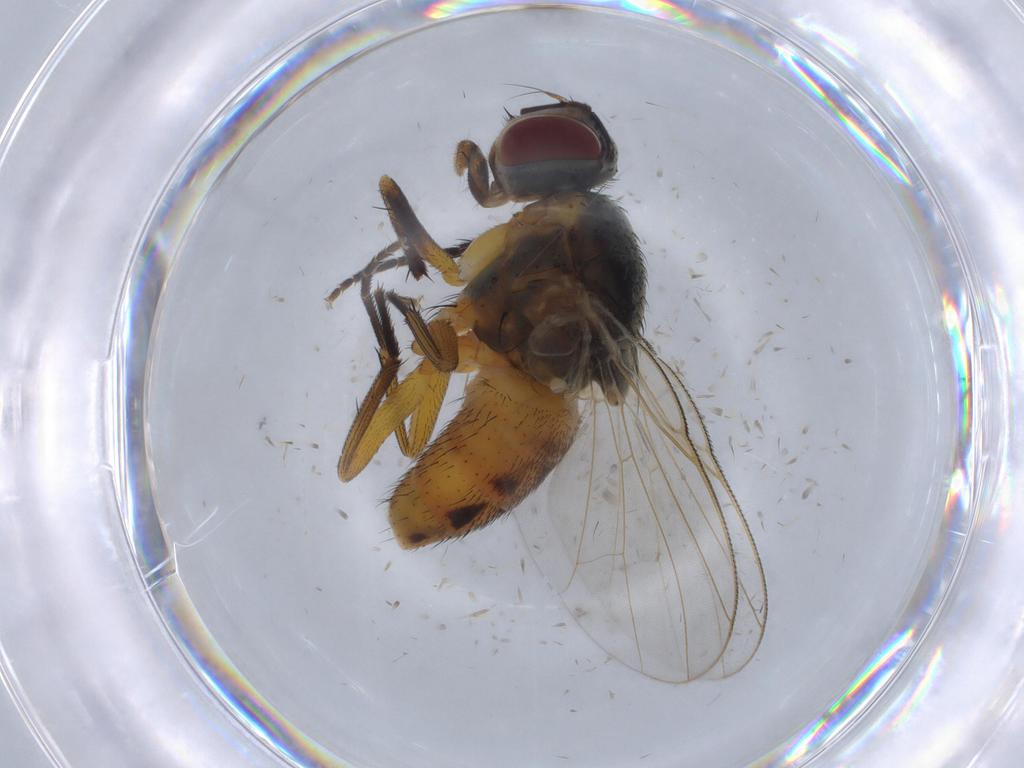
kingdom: Animalia
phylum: Arthropoda
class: Insecta
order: Diptera
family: Muscidae
